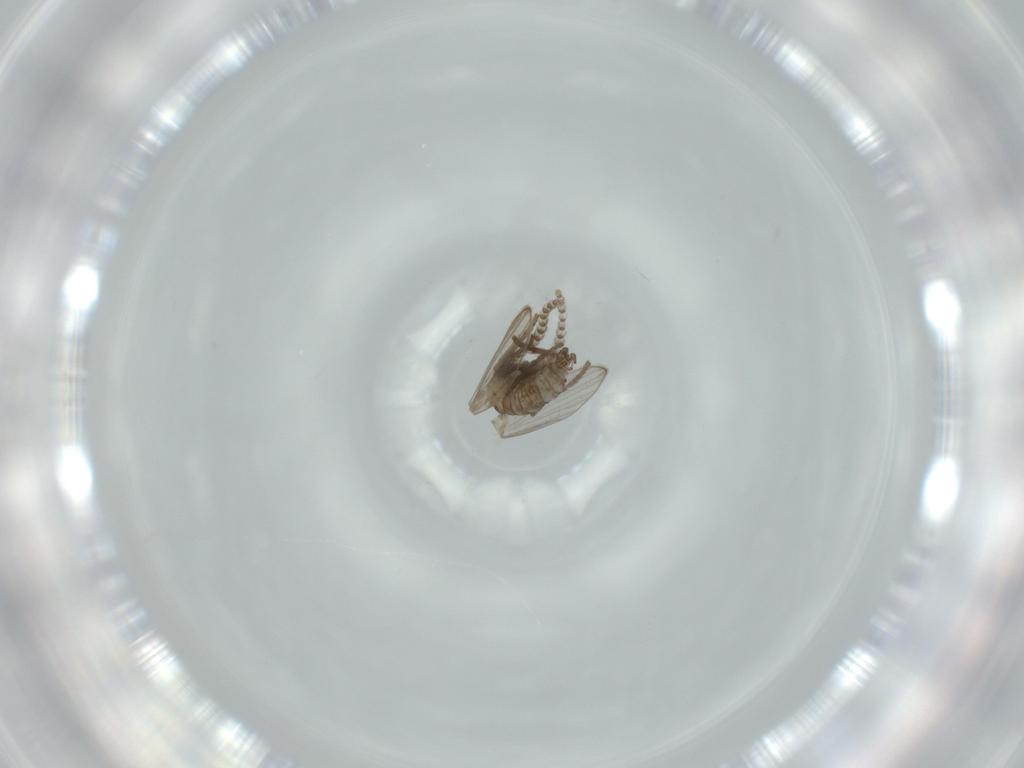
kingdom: Animalia
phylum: Arthropoda
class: Insecta
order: Diptera
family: Psychodidae
